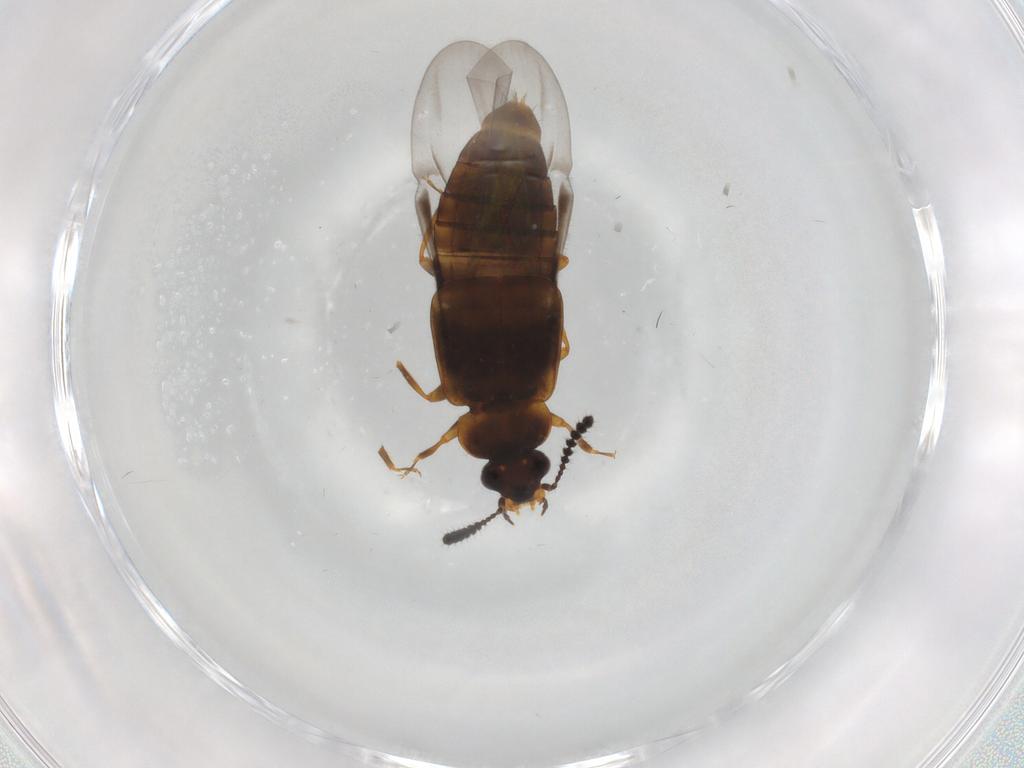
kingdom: Animalia
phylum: Arthropoda
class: Insecta
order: Coleoptera
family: Staphylinidae
